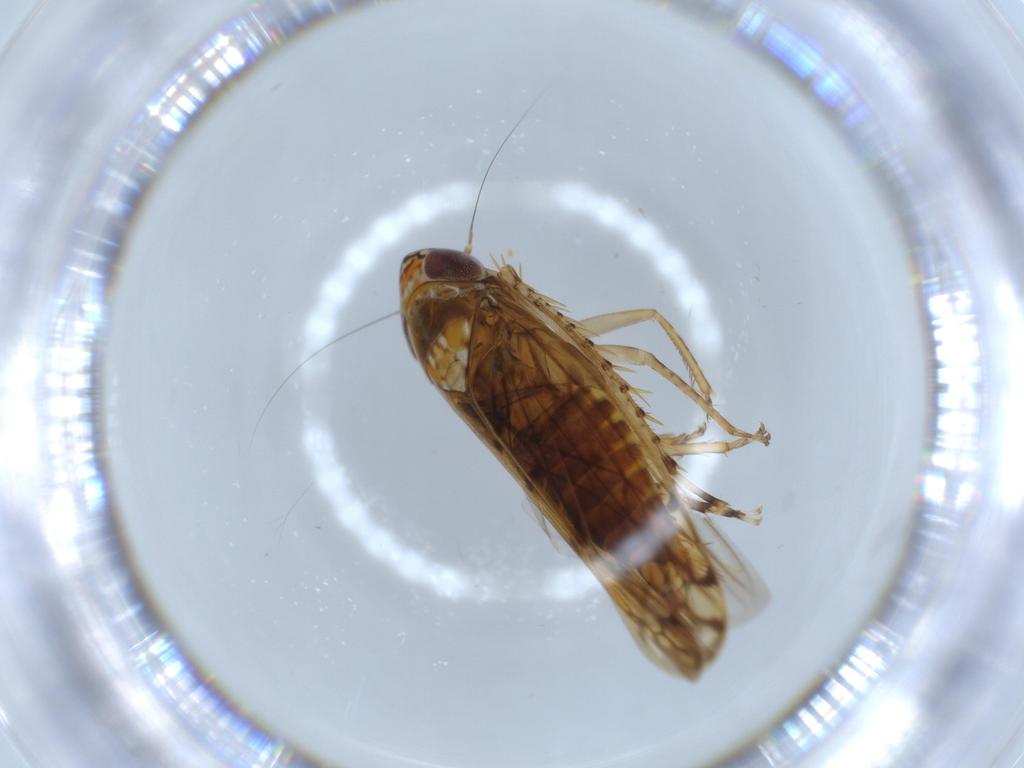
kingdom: Animalia
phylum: Arthropoda
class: Insecta
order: Hemiptera
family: Cicadellidae
